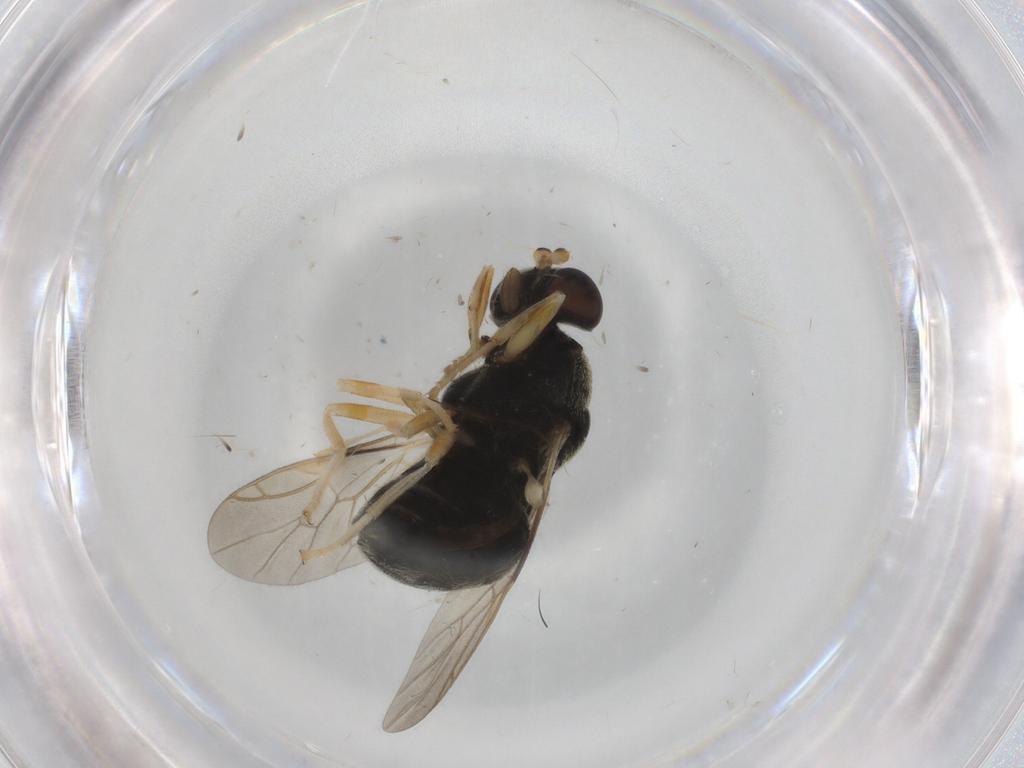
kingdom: Animalia
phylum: Arthropoda
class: Insecta
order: Diptera
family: Stratiomyidae
